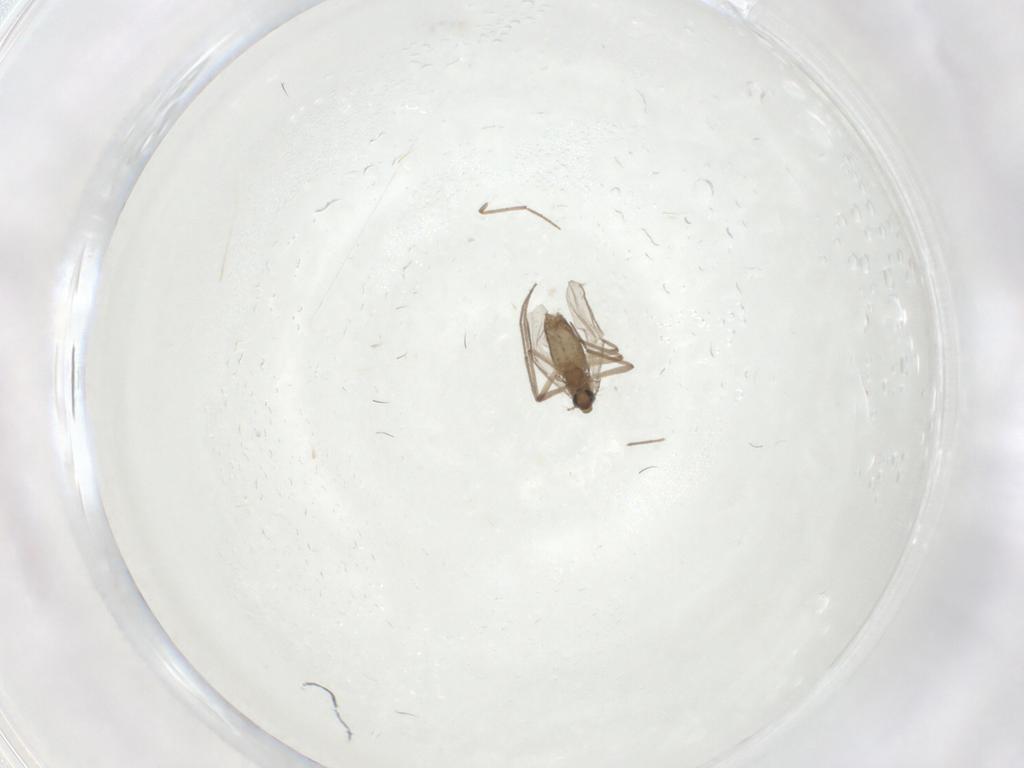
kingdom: Animalia
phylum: Arthropoda
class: Insecta
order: Diptera
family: Chironomidae
